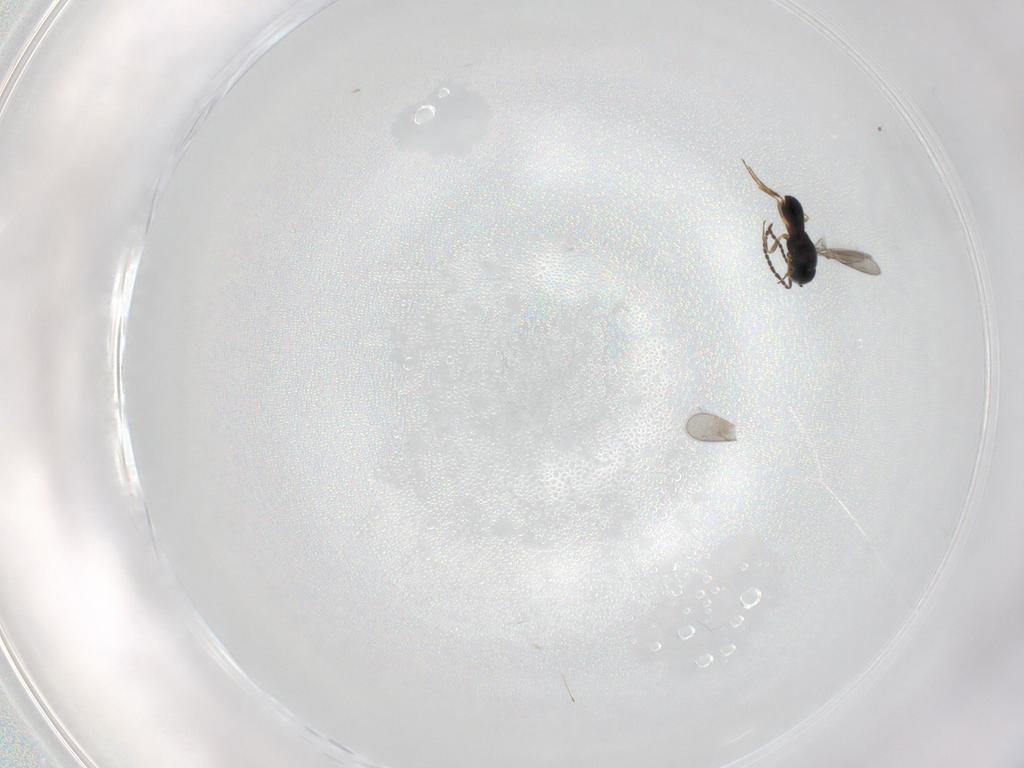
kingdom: Animalia
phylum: Arthropoda
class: Insecta
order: Hymenoptera
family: Scelionidae
